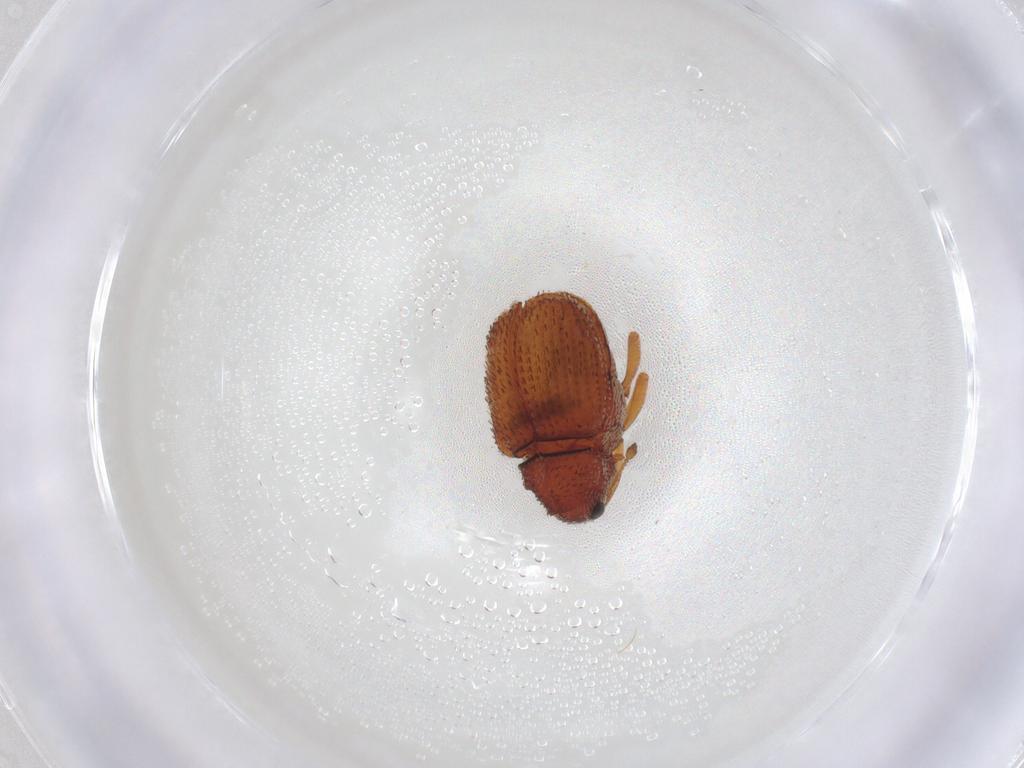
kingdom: Animalia
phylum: Arthropoda
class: Insecta
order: Coleoptera
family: Curculionidae
